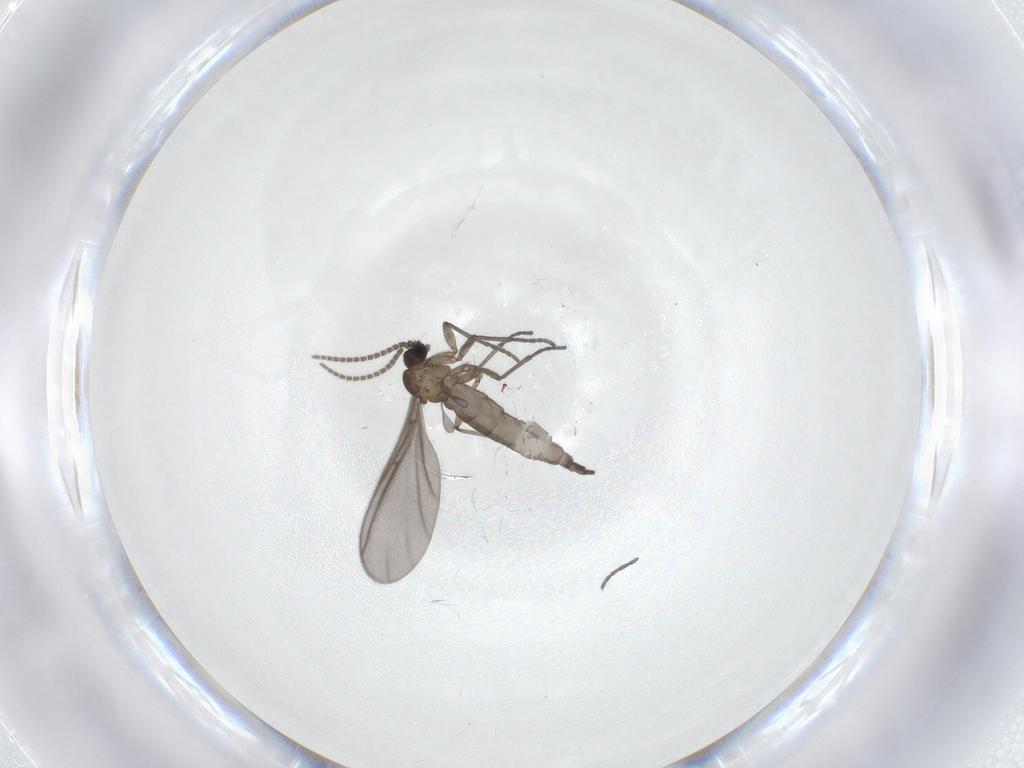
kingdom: Animalia
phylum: Arthropoda
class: Insecta
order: Diptera
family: Sciaridae
